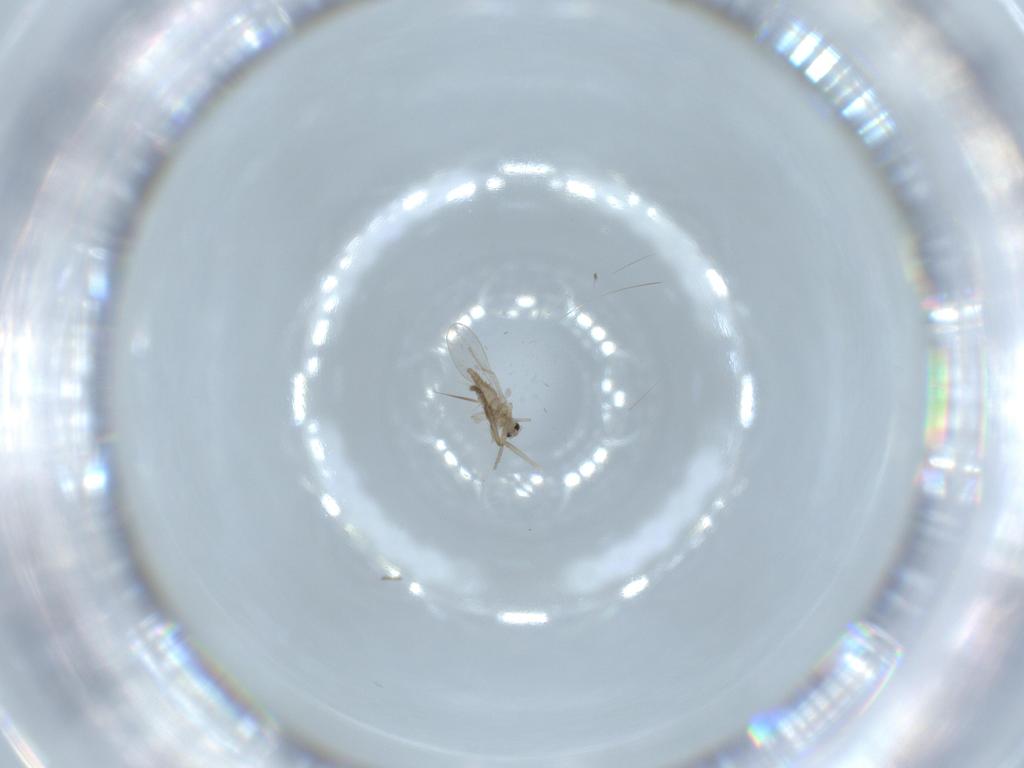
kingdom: Animalia
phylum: Arthropoda
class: Insecta
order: Diptera
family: Cecidomyiidae
